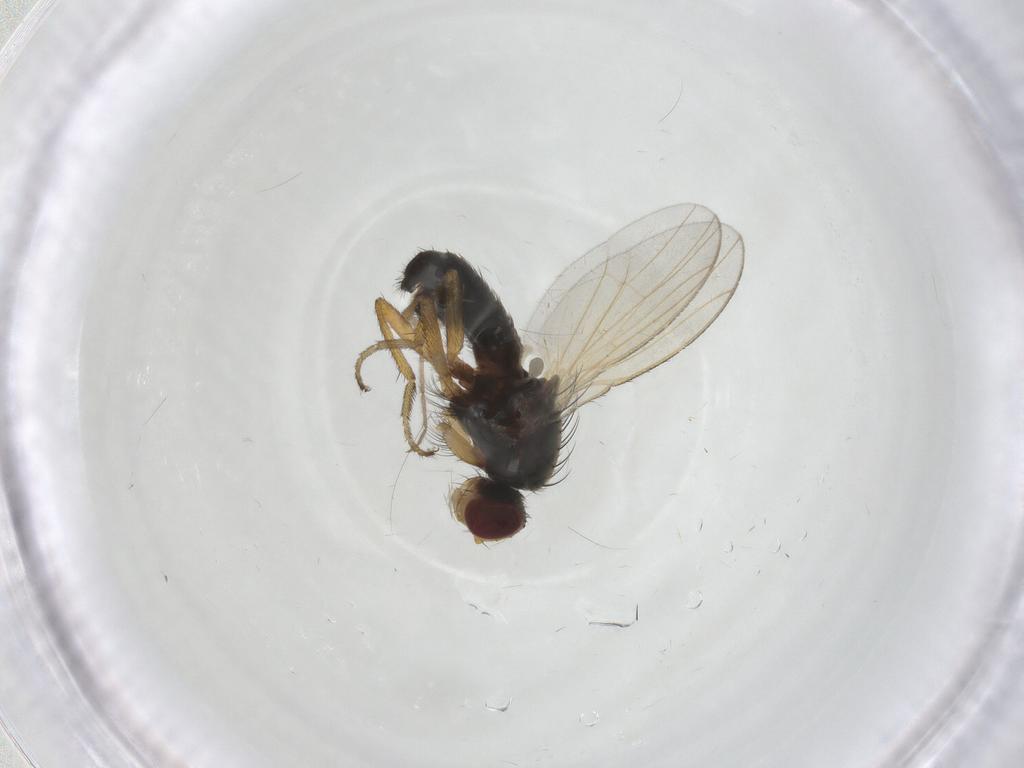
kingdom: Animalia
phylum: Arthropoda
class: Insecta
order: Diptera
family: Heleomyzidae
